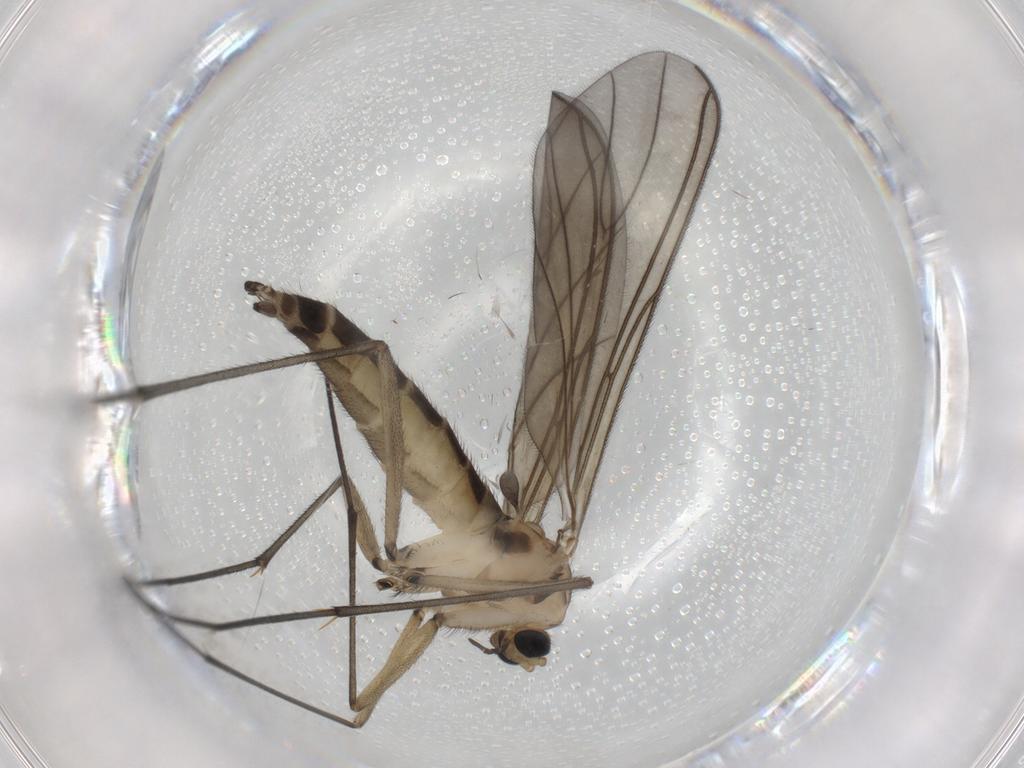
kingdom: Animalia
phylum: Arthropoda
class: Insecta
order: Diptera
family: Sciaridae
